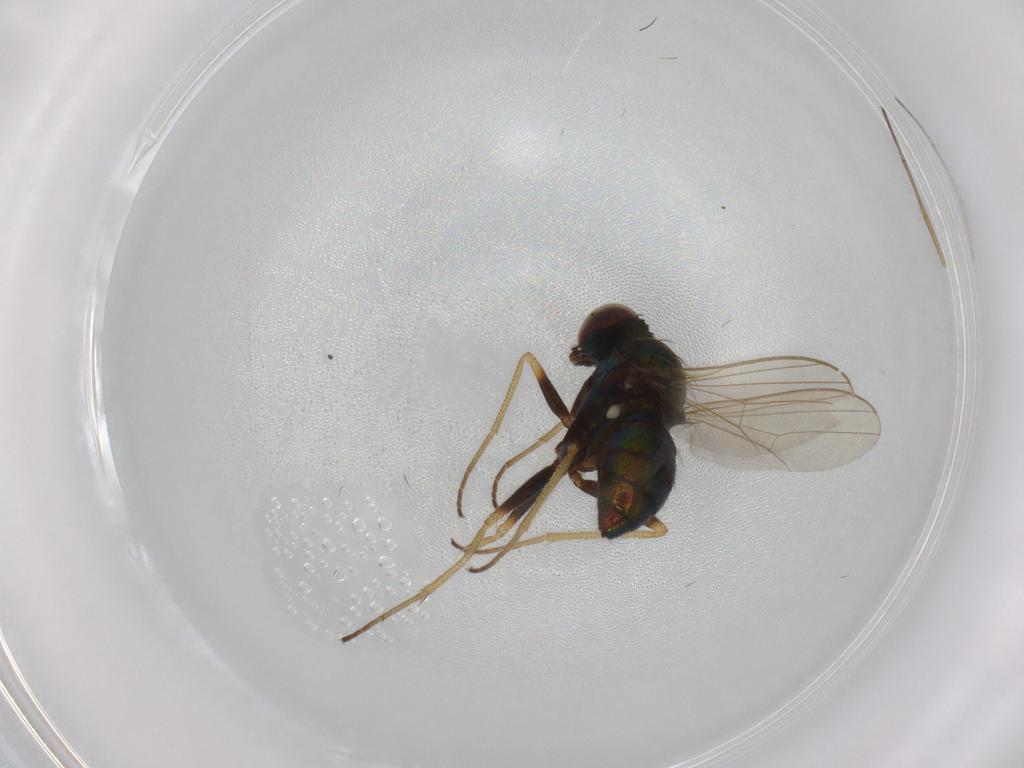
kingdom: Animalia
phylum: Arthropoda
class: Insecta
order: Diptera
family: Dolichopodidae
